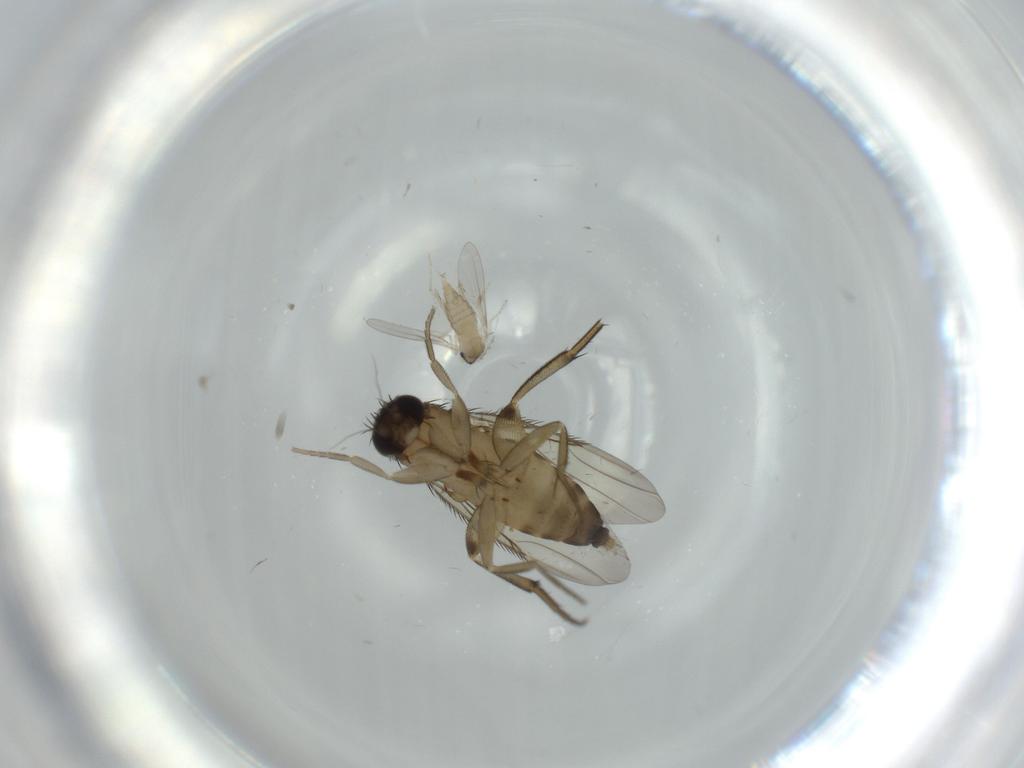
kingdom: Animalia
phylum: Arthropoda
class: Insecta
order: Diptera
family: Phoridae
